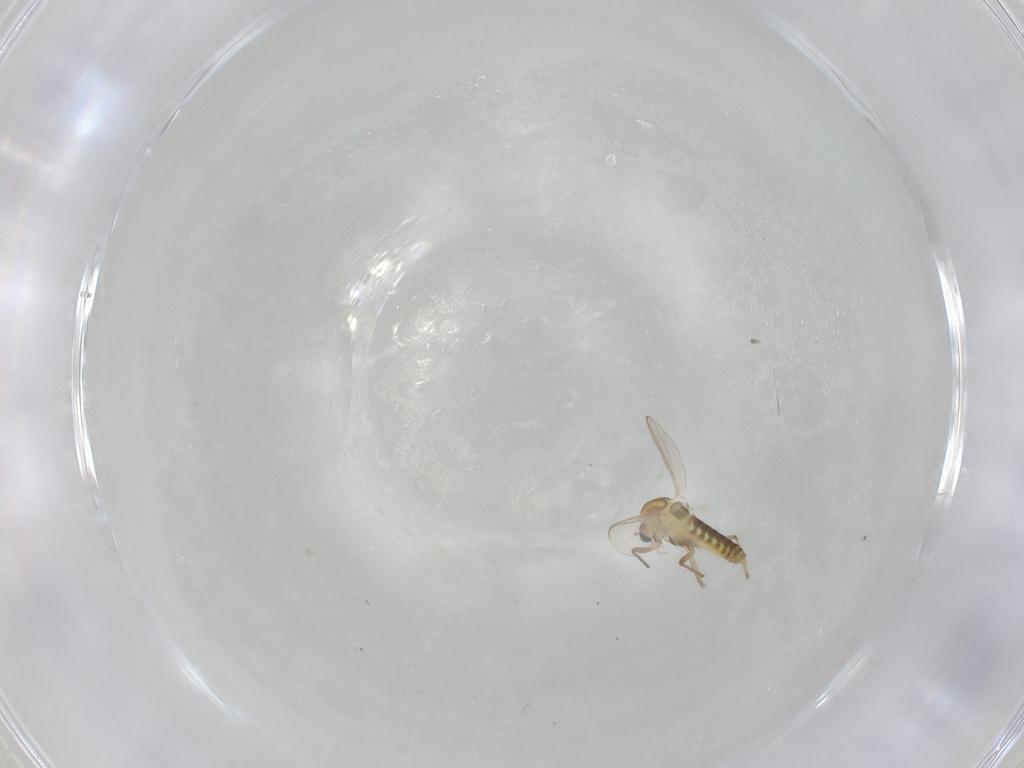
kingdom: Animalia
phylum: Arthropoda
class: Insecta
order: Diptera
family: Chironomidae
